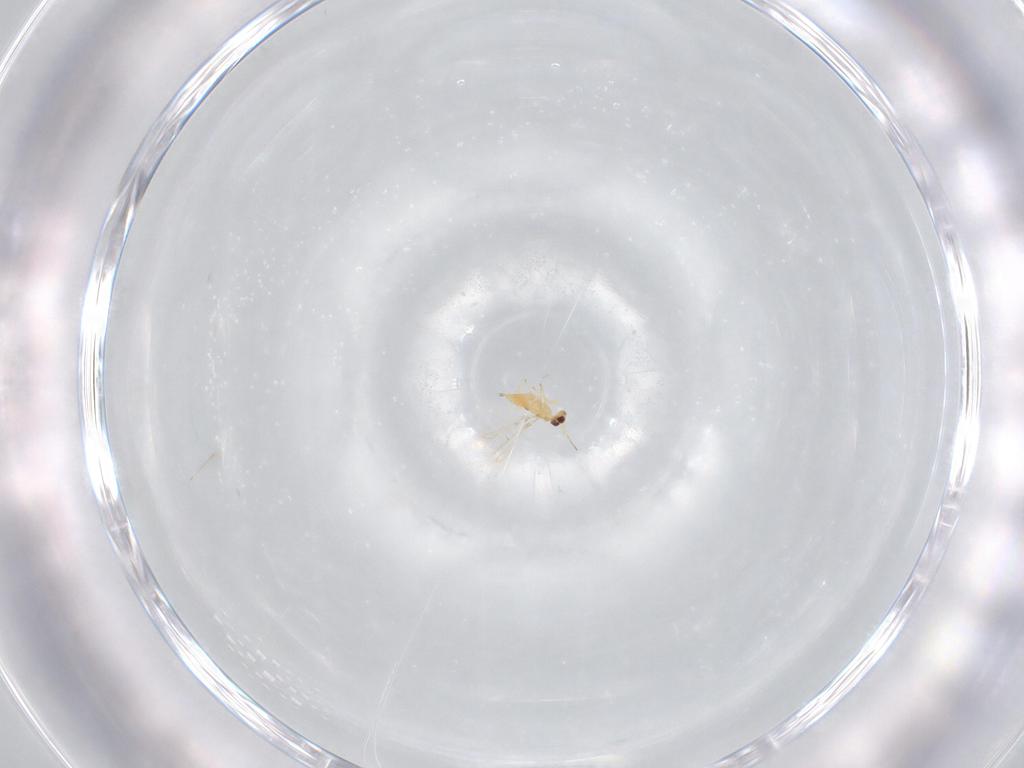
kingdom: Animalia
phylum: Arthropoda
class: Insecta
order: Hymenoptera
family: Mymaridae
